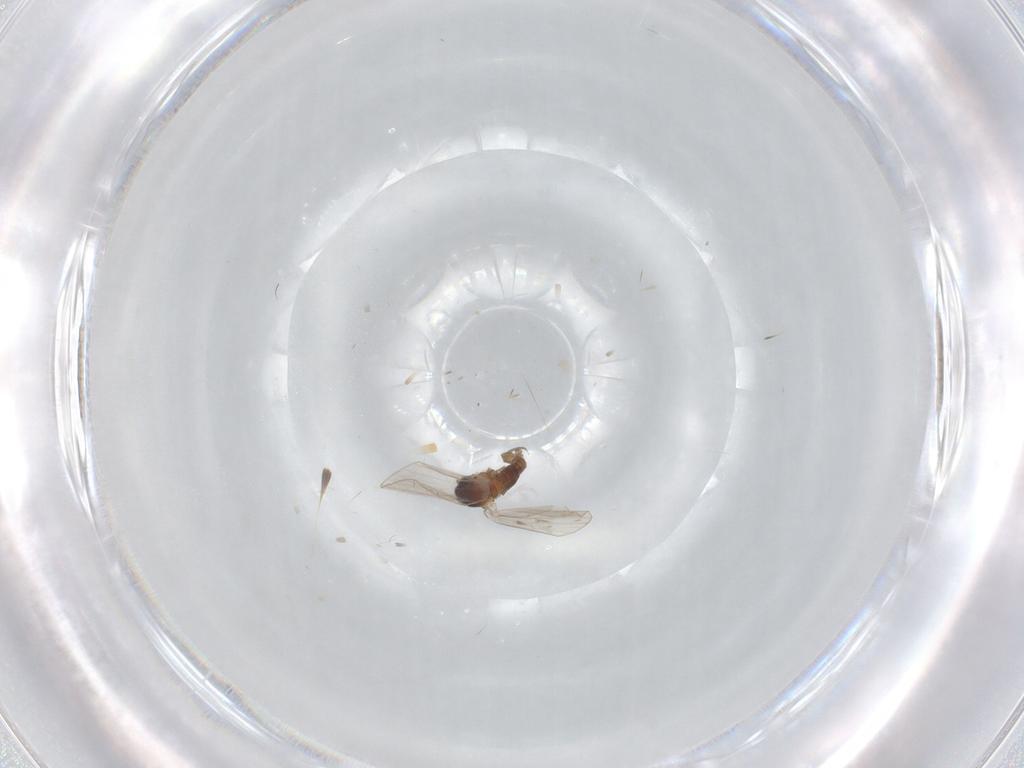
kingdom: Animalia
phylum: Arthropoda
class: Insecta
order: Diptera
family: Psychodidae
